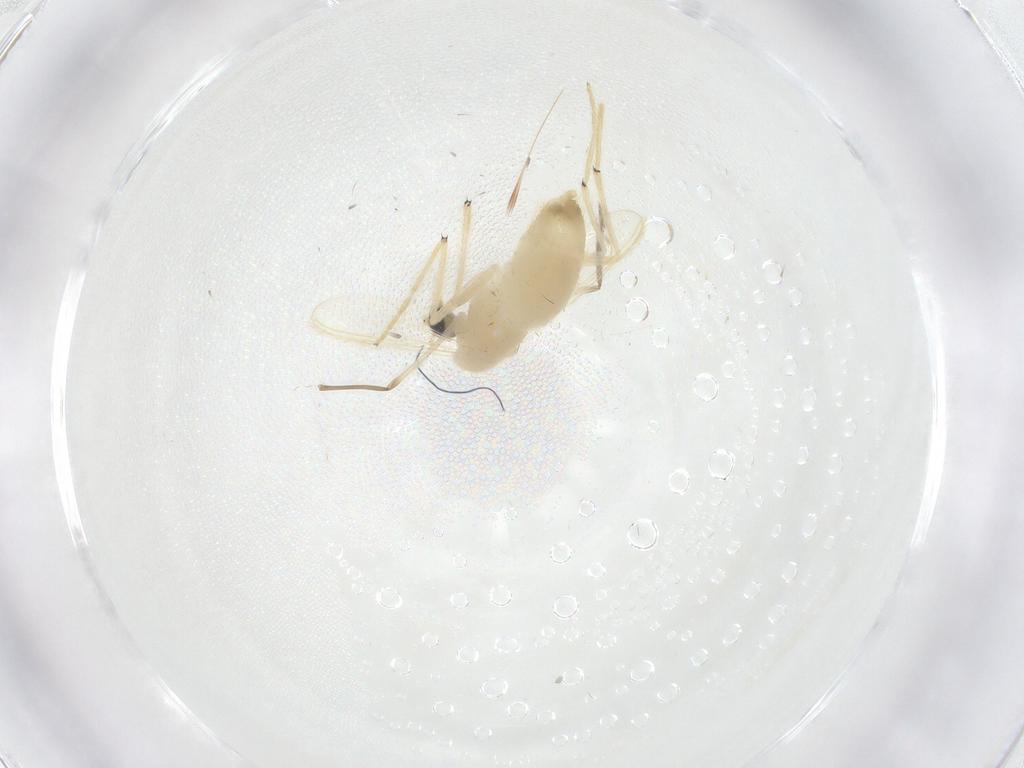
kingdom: Animalia
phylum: Arthropoda
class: Insecta
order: Diptera
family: Chironomidae
